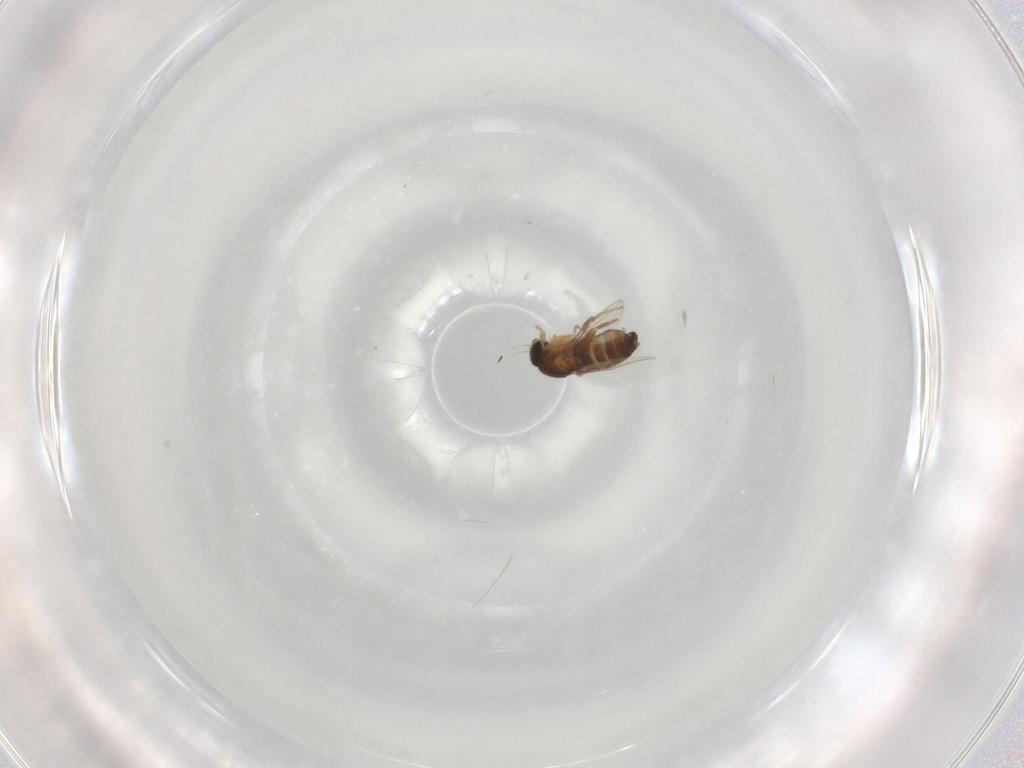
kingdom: Animalia
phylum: Arthropoda
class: Insecta
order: Diptera
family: Phoridae
